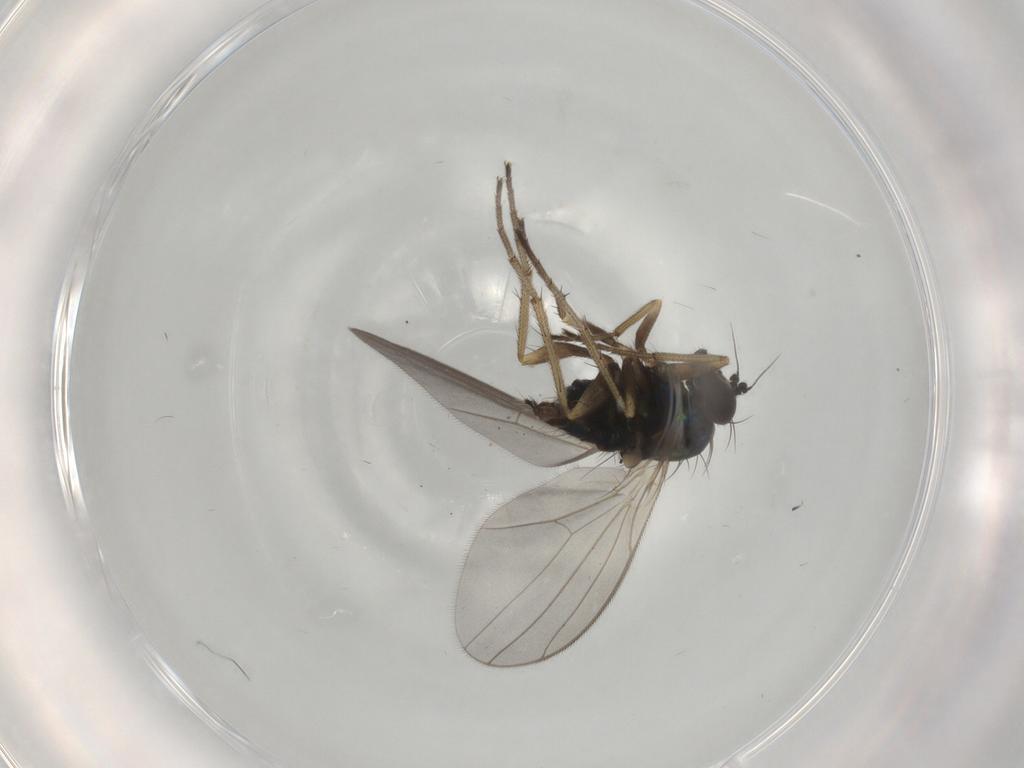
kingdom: Animalia
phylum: Arthropoda
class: Insecta
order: Diptera
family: Dolichopodidae
